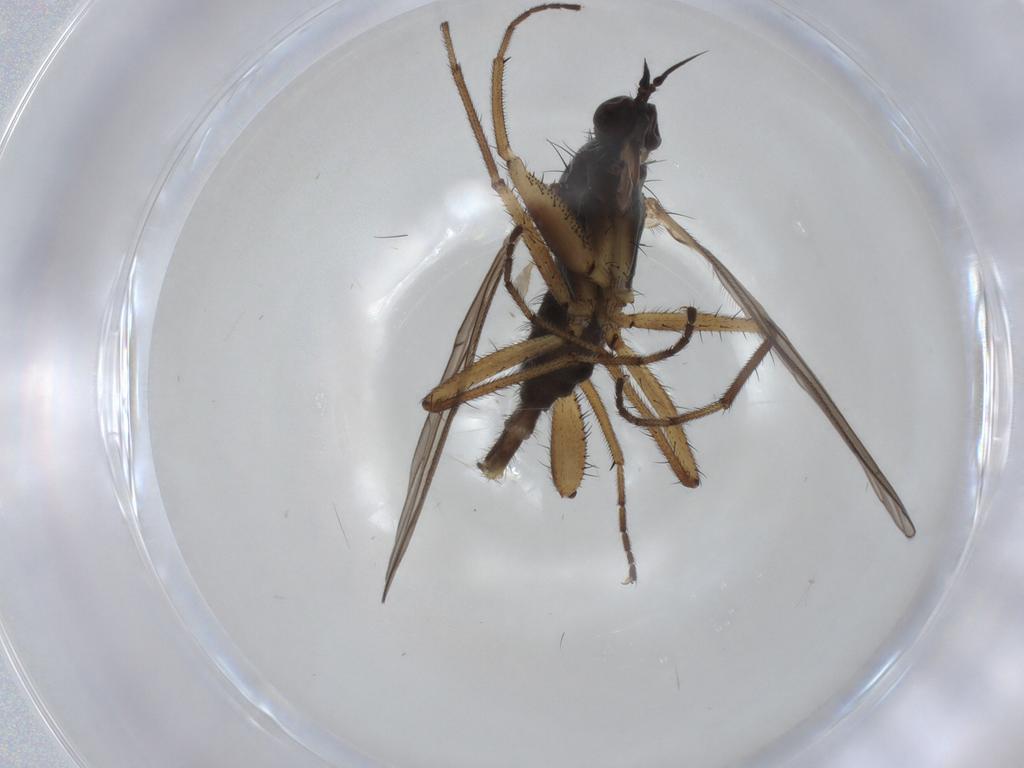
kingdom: Animalia
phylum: Arthropoda
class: Insecta
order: Diptera
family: Empididae
